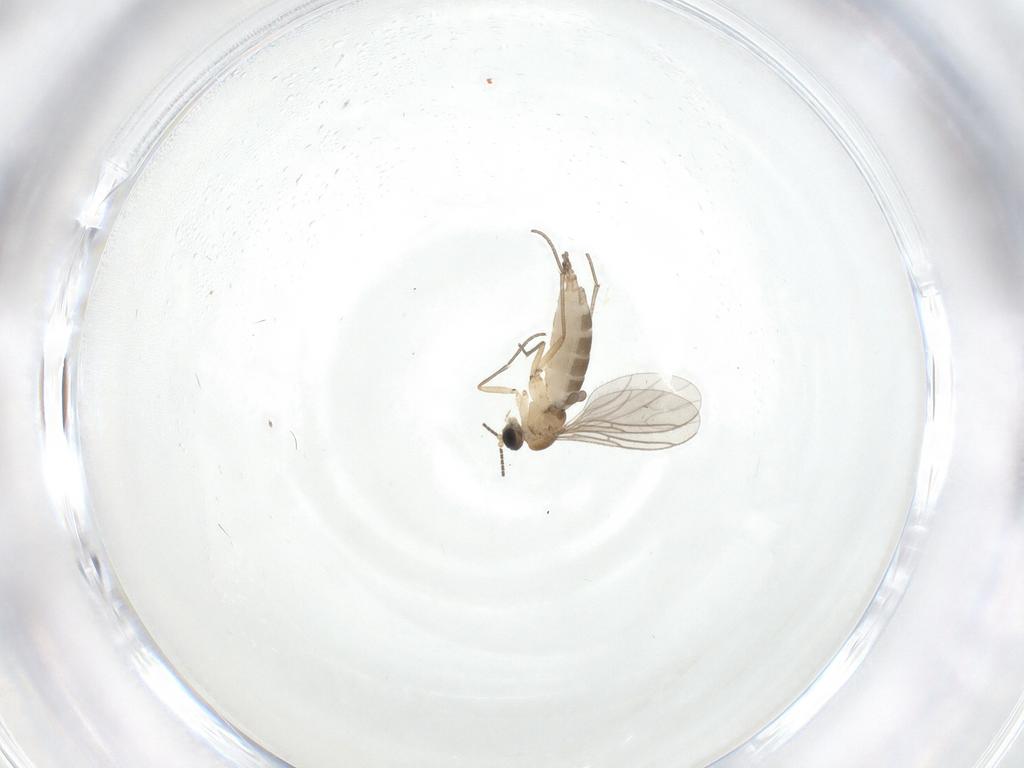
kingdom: Animalia
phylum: Arthropoda
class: Insecta
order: Diptera
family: Sciaridae
